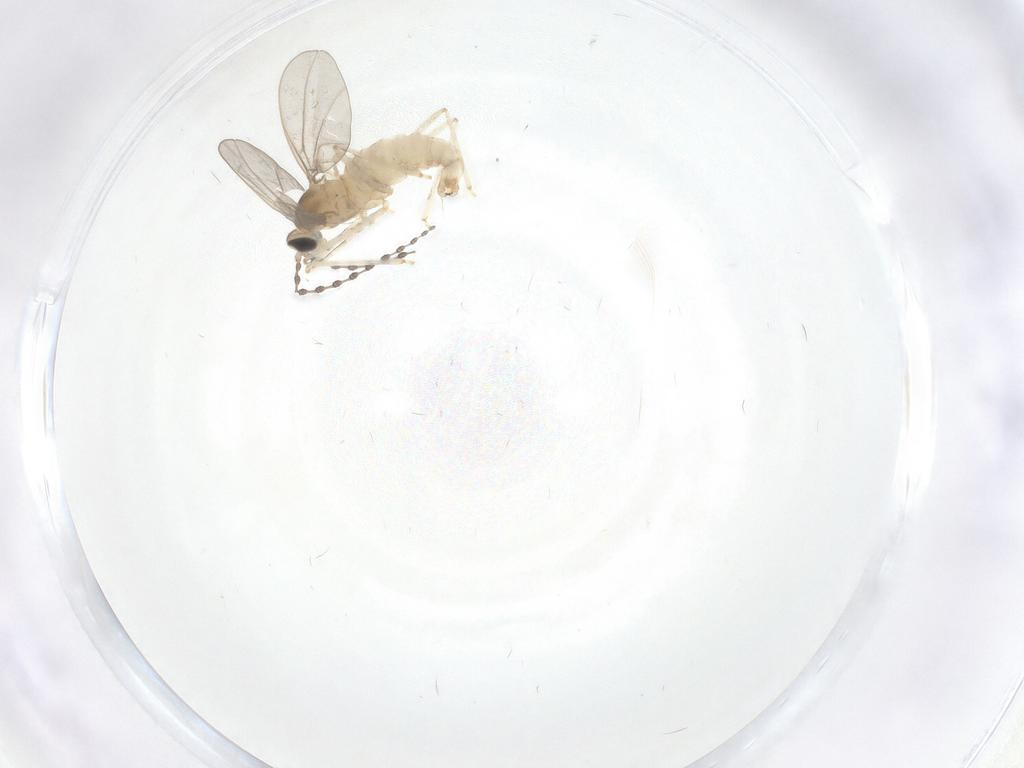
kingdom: Animalia
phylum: Arthropoda
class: Insecta
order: Diptera
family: Cecidomyiidae
